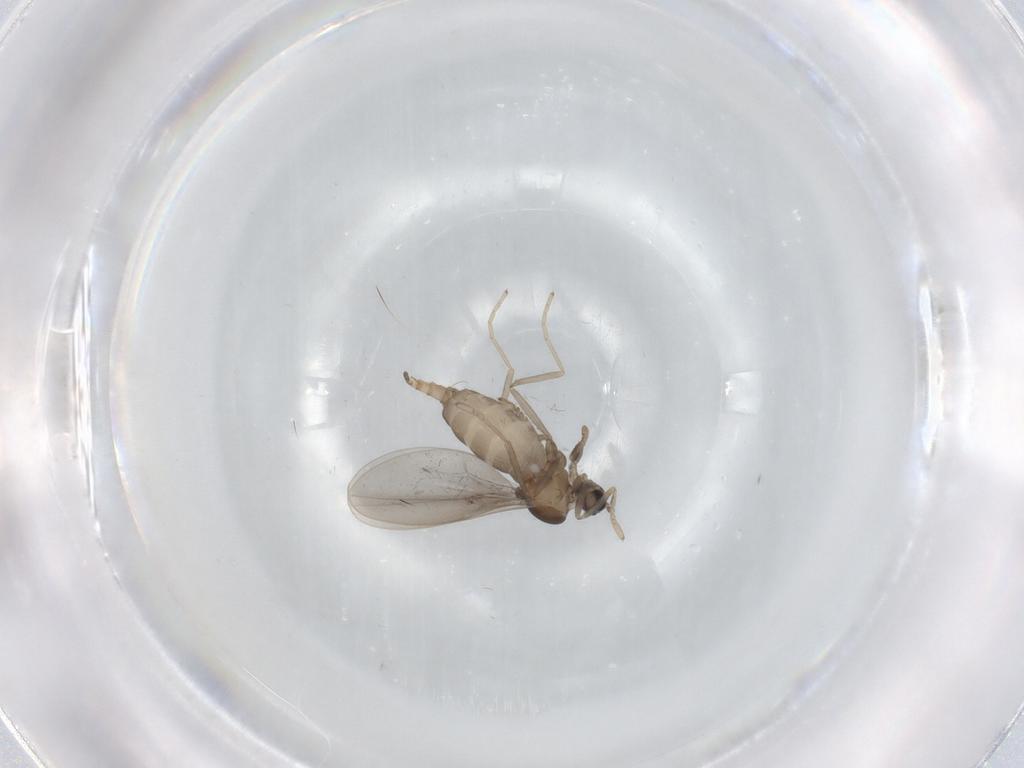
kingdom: Animalia
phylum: Arthropoda
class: Insecta
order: Diptera
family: Cecidomyiidae
